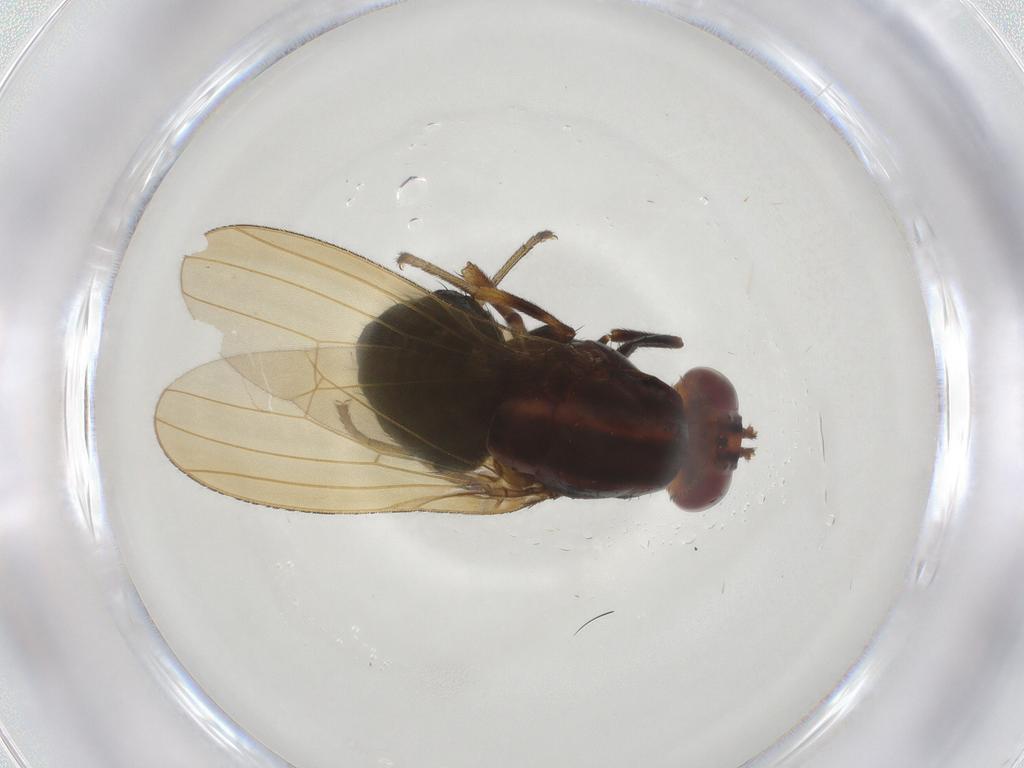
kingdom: Animalia
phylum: Arthropoda
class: Insecta
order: Diptera
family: Lauxaniidae
